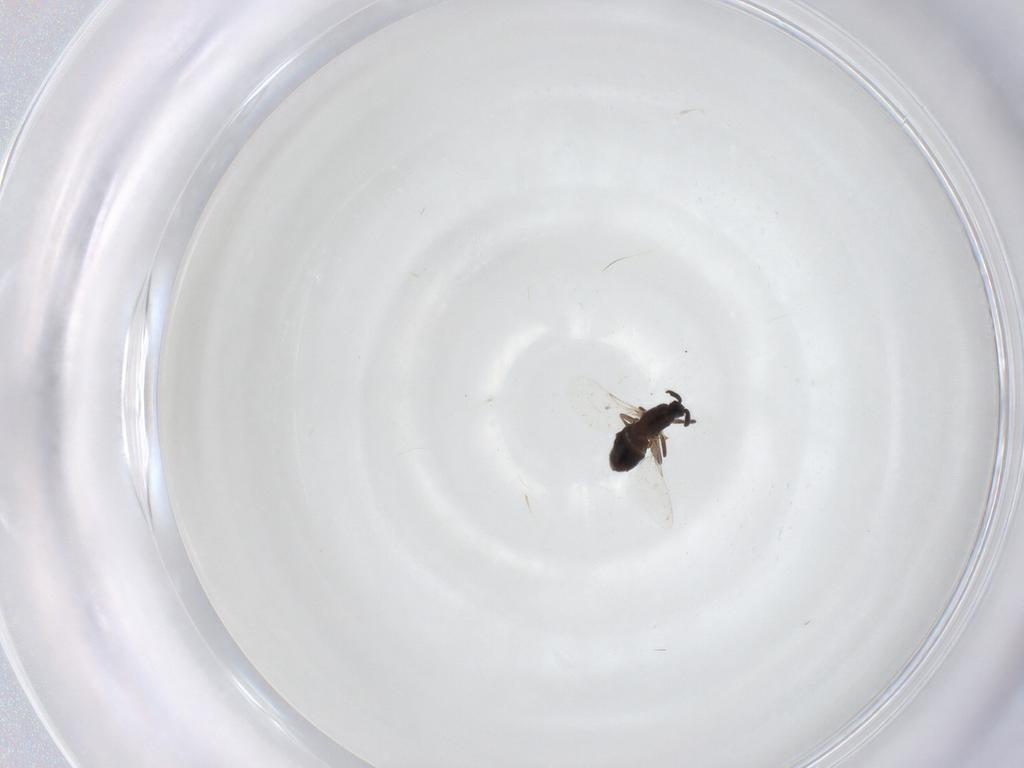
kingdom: Animalia
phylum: Arthropoda
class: Insecta
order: Diptera
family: Scatopsidae
